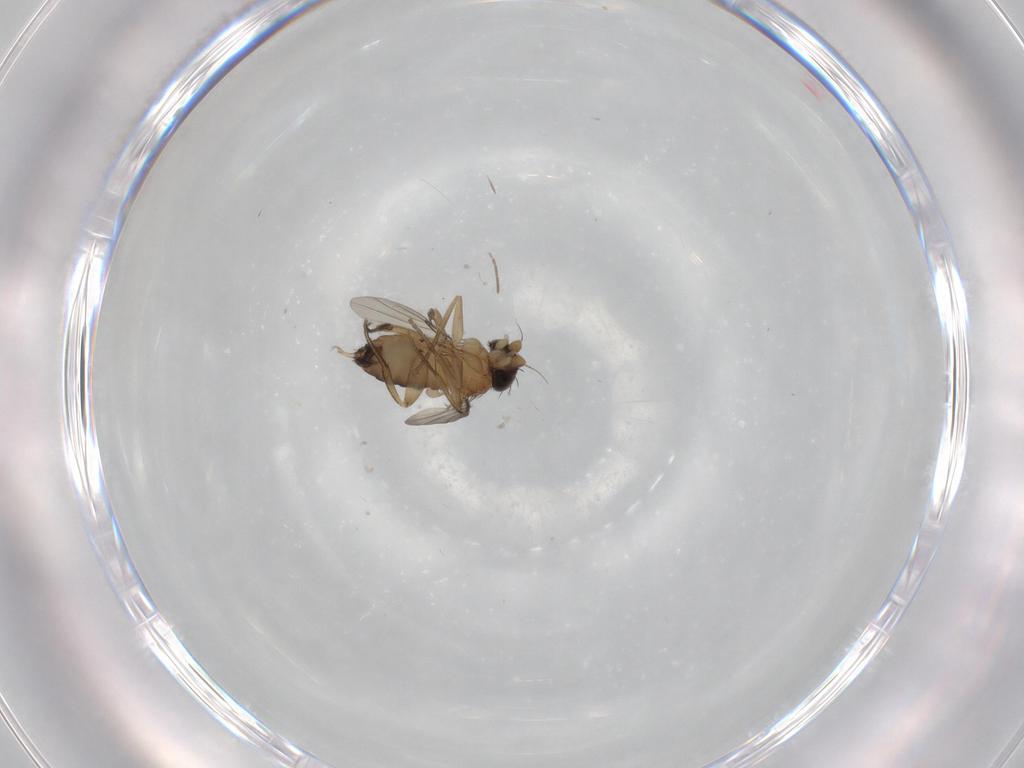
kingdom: Animalia
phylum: Arthropoda
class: Insecta
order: Diptera
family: Phoridae
